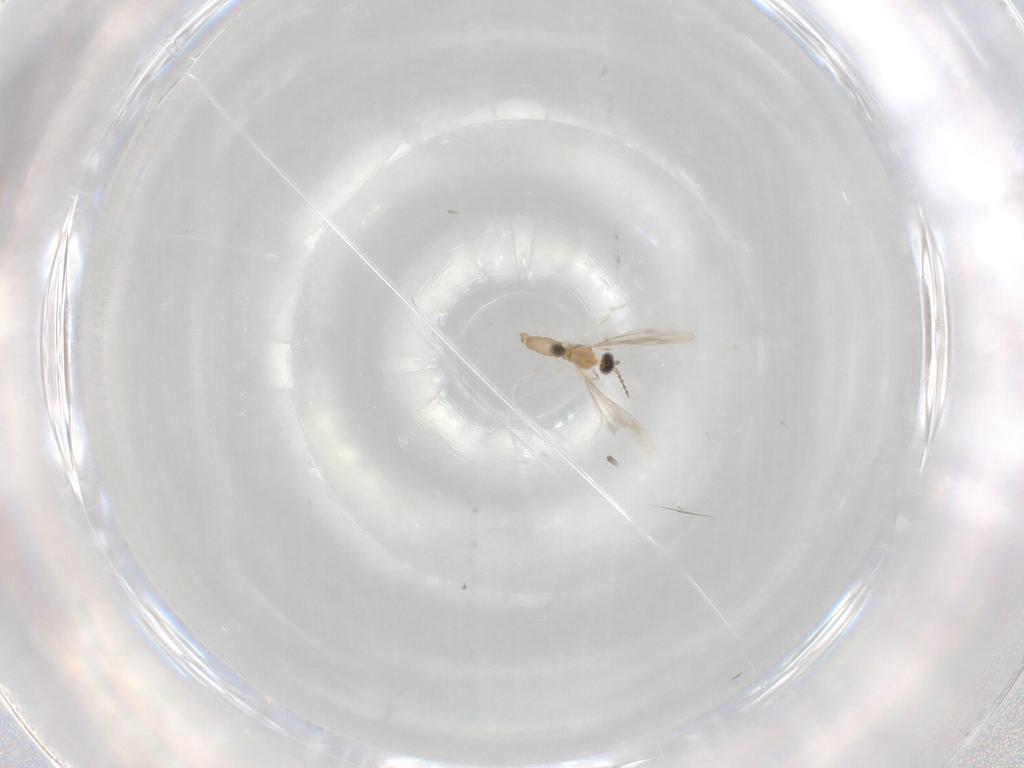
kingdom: Animalia
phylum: Arthropoda
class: Insecta
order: Diptera
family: Cecidomyiidae
